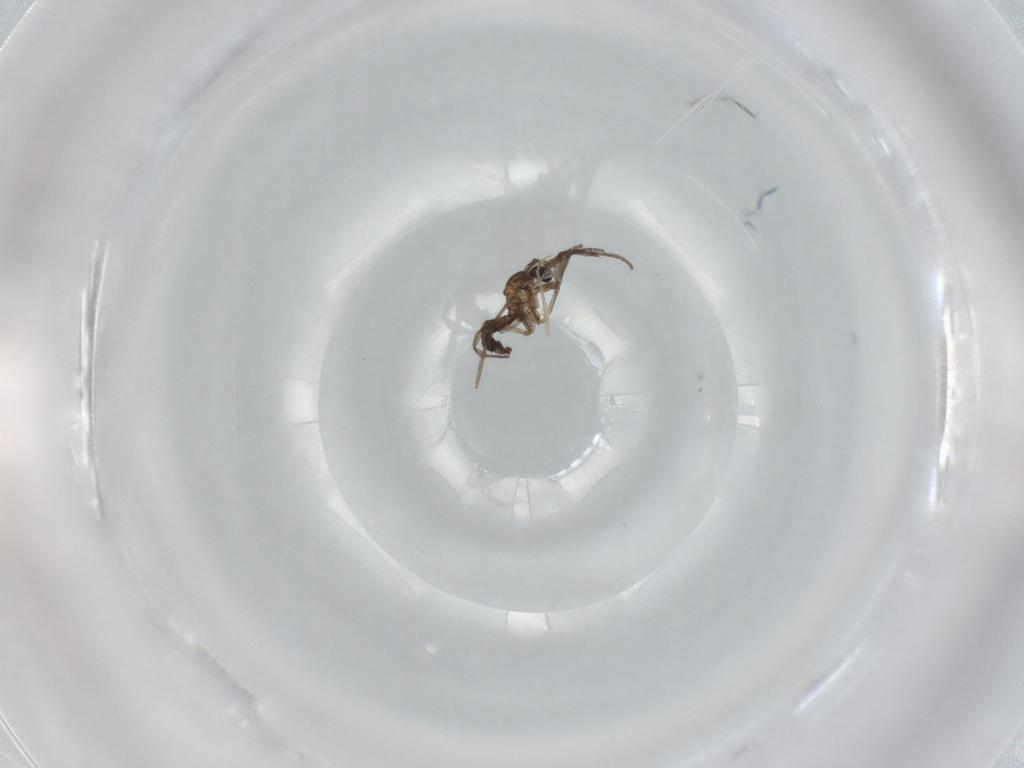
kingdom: Animalia
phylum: Arthropoda
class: Insecta
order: Diptera
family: Sciaridae
